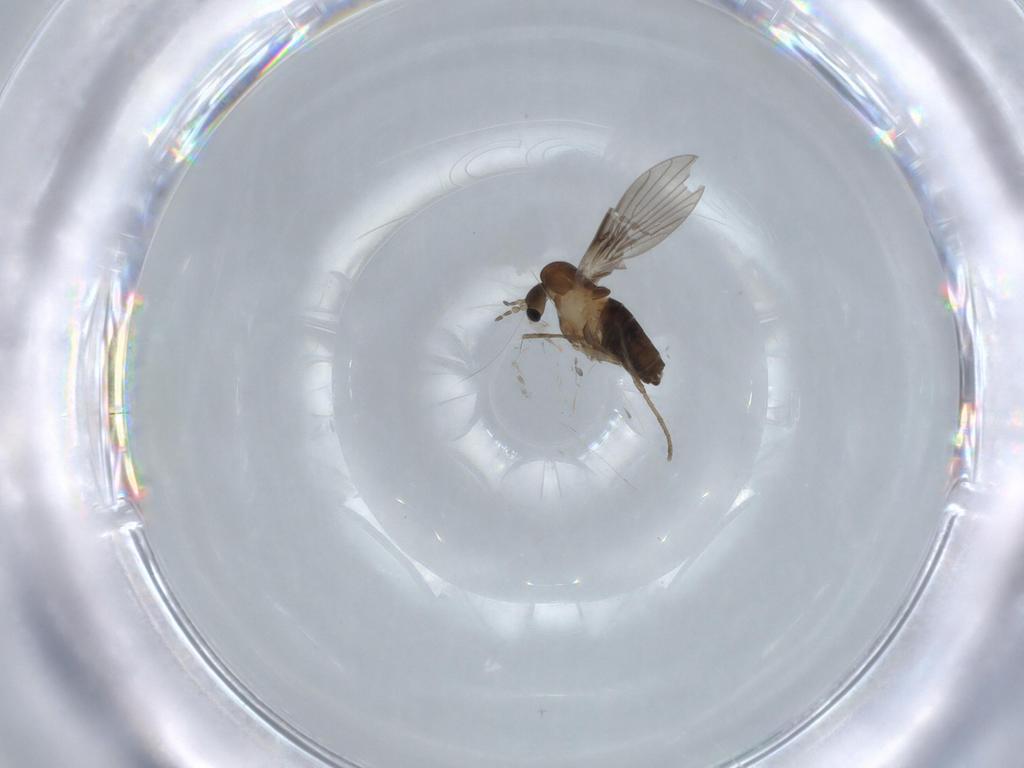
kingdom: Animalia
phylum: Arthropoda
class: Insecta
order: Diptera
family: Psychodidae
